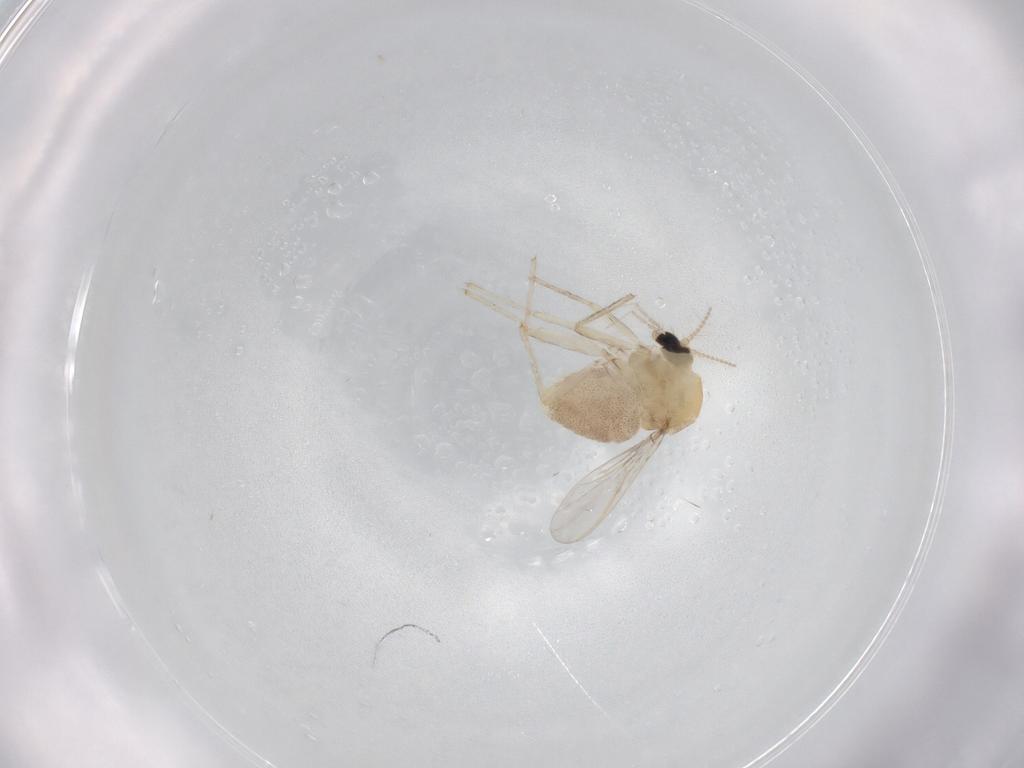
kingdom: Animalia
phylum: Arthropoda
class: Insecta
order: Diptera
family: Chironomidae
